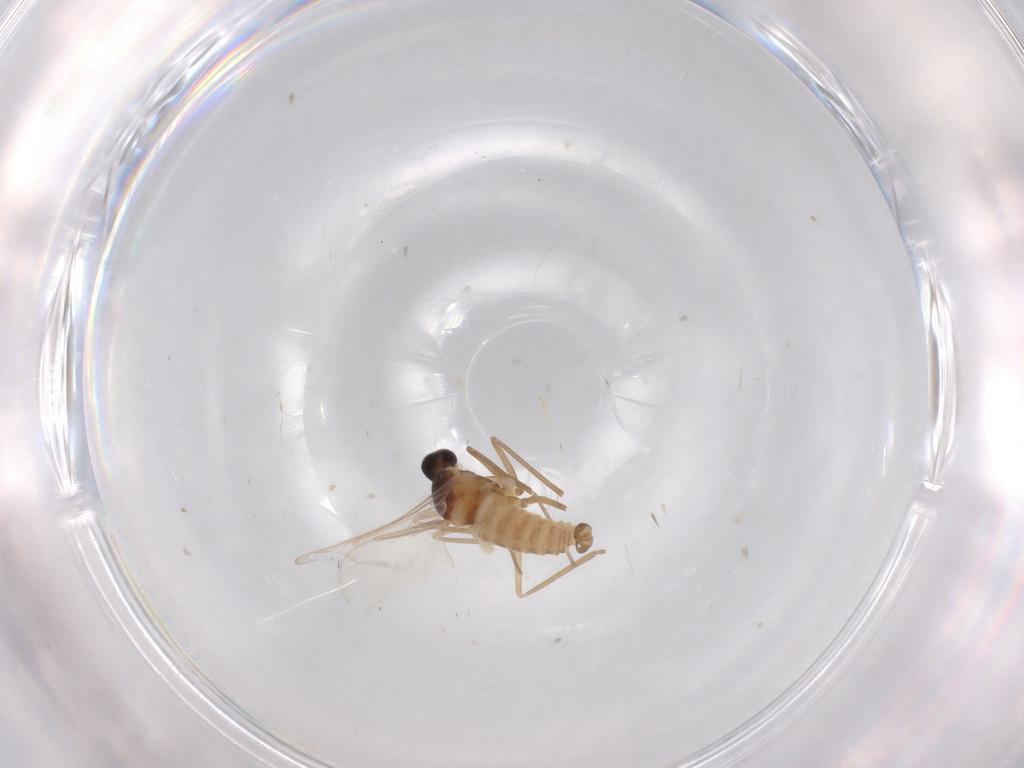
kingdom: Animalia
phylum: Arthropoda
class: Insecta
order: Diptera
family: Cecidomyiidae
